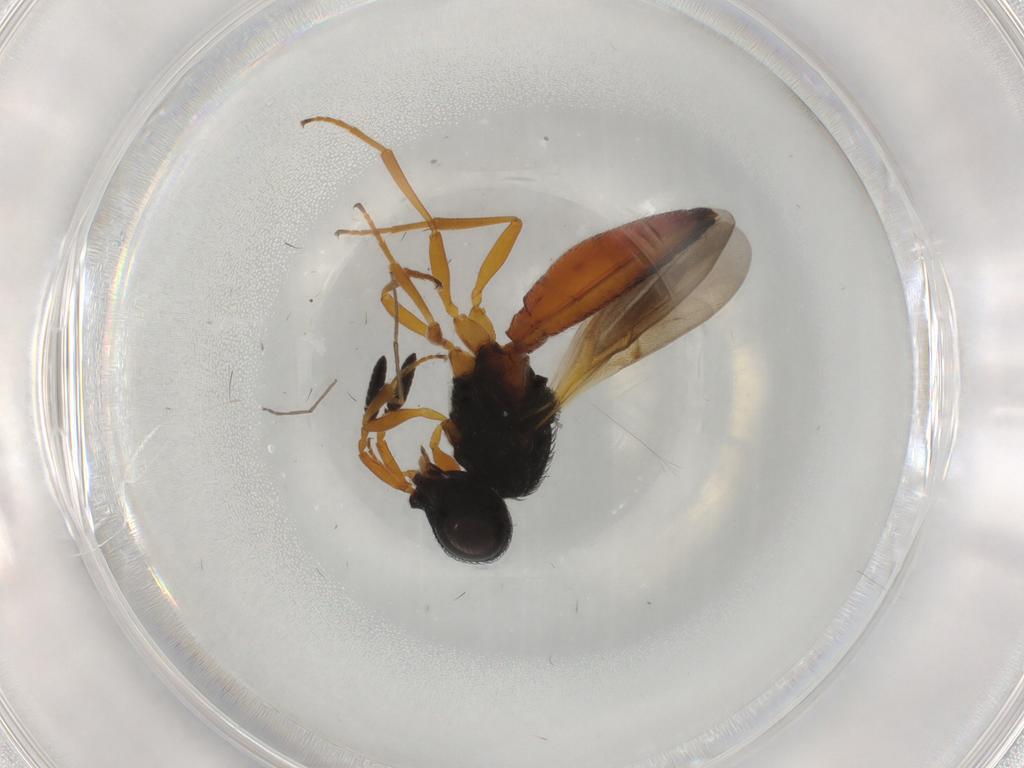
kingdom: Animalia
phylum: Arthropoda
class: Insecta
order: Hymenoptera
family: Scelionidae
